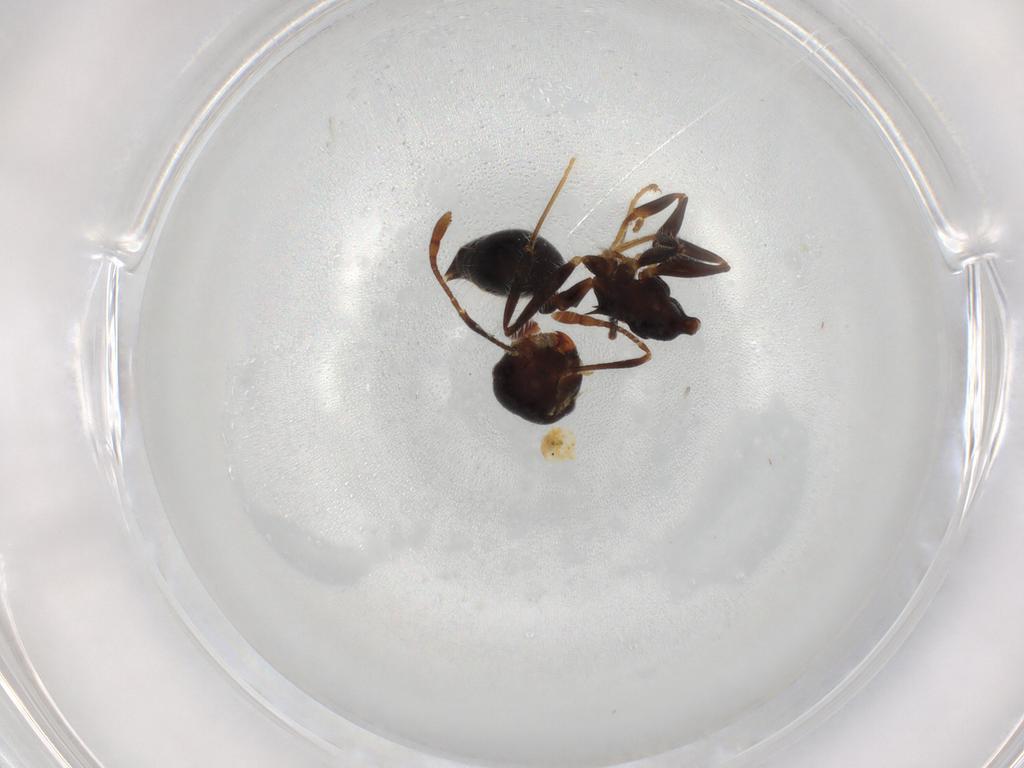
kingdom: Animalia
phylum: Arthropoda
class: Insecta
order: Hymenoptera
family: Formicidae
